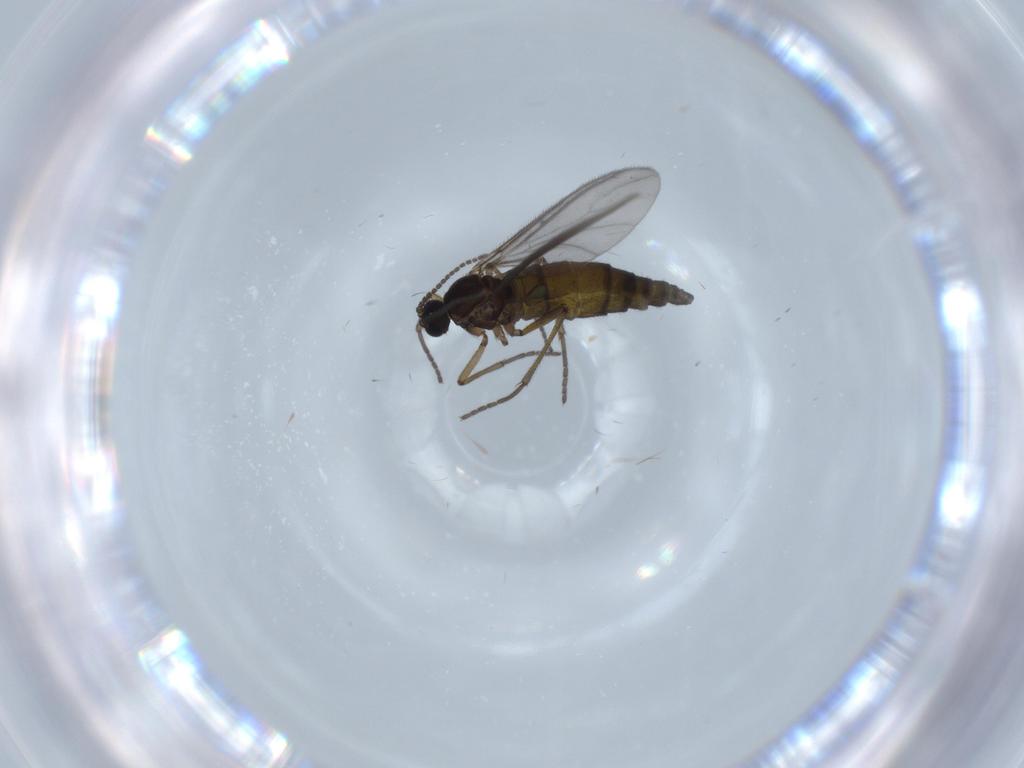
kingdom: Animalia
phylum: Arthropoda
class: Insecta
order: Diptera
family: Sciaridae
